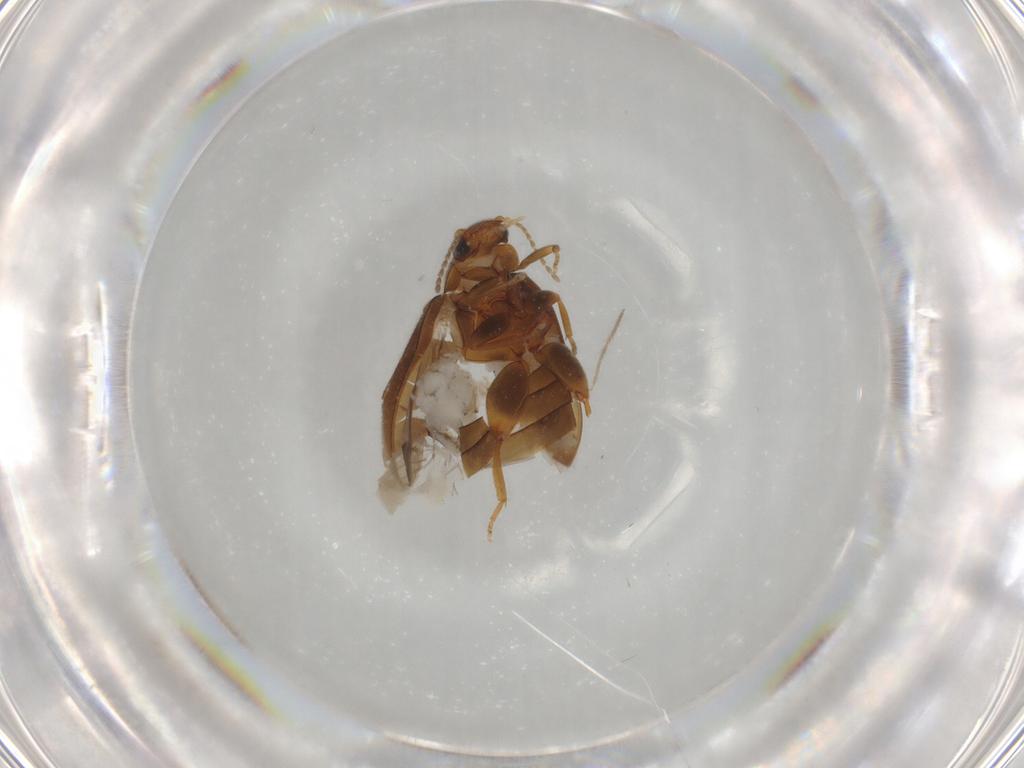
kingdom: Animalia
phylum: Arthropoda
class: Insecta
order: Coleoptera
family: Scirtidae
